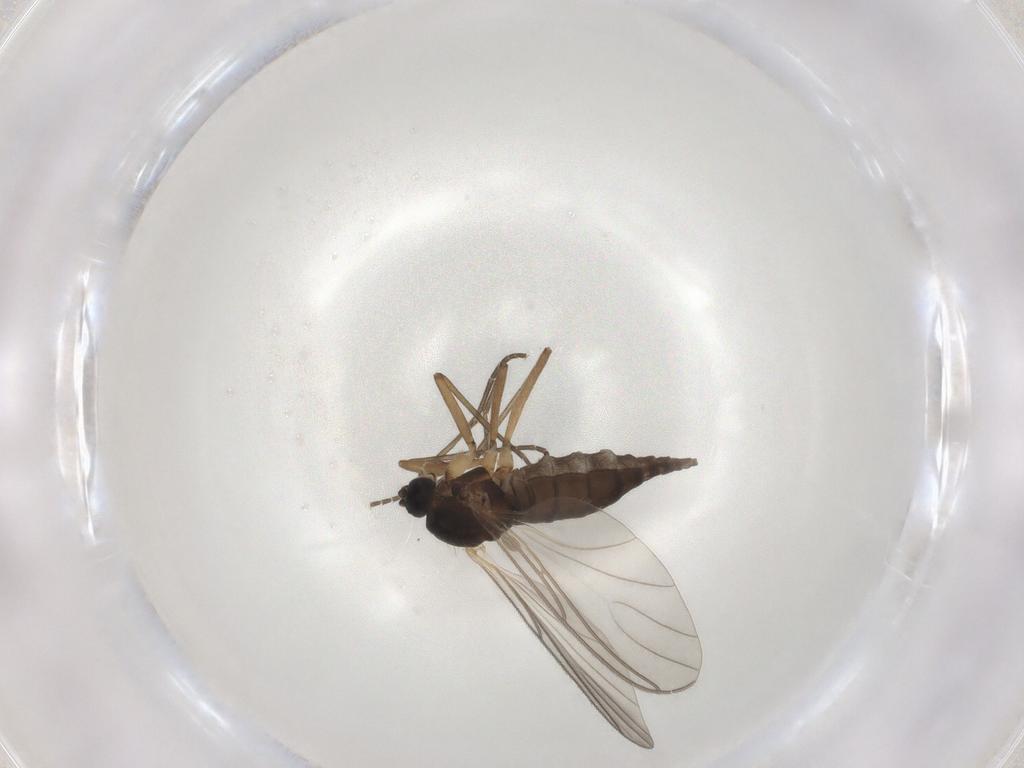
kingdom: Animalia
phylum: Arthropoda
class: Insecta
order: Diptera
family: Sciaridae
